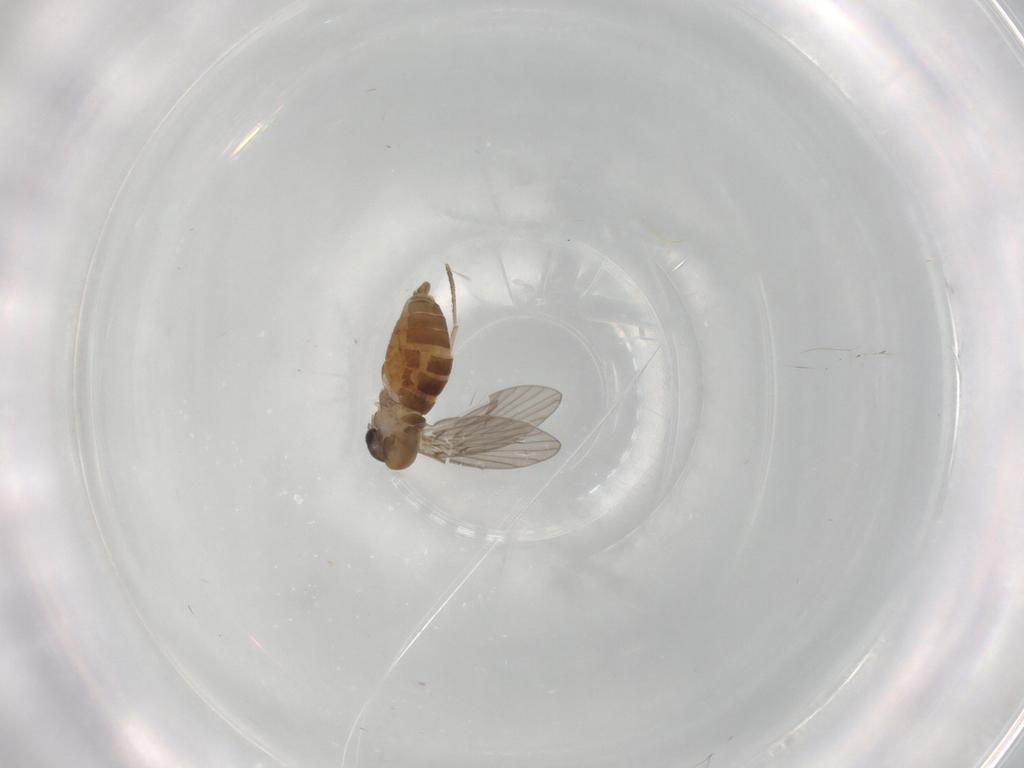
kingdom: Animalia
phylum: Arthropoda
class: Insecta
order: Diptera
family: Psychodidae
